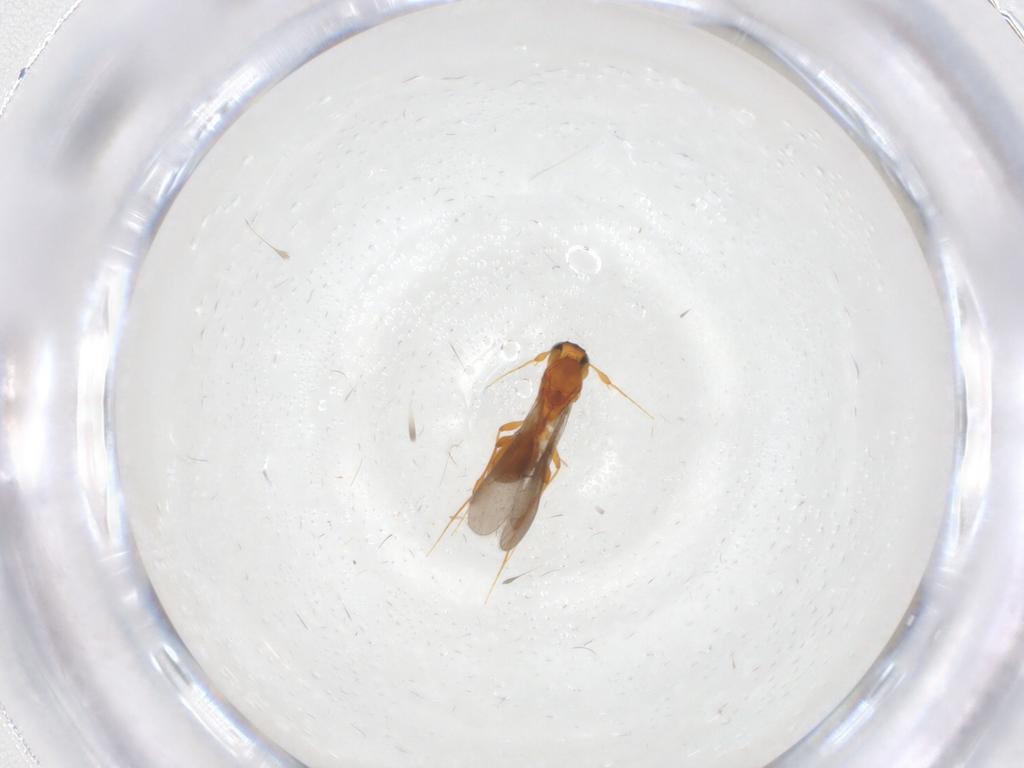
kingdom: Animalia
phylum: Arthropoda
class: Insecta
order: Hymenoptera
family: Platygastridae
